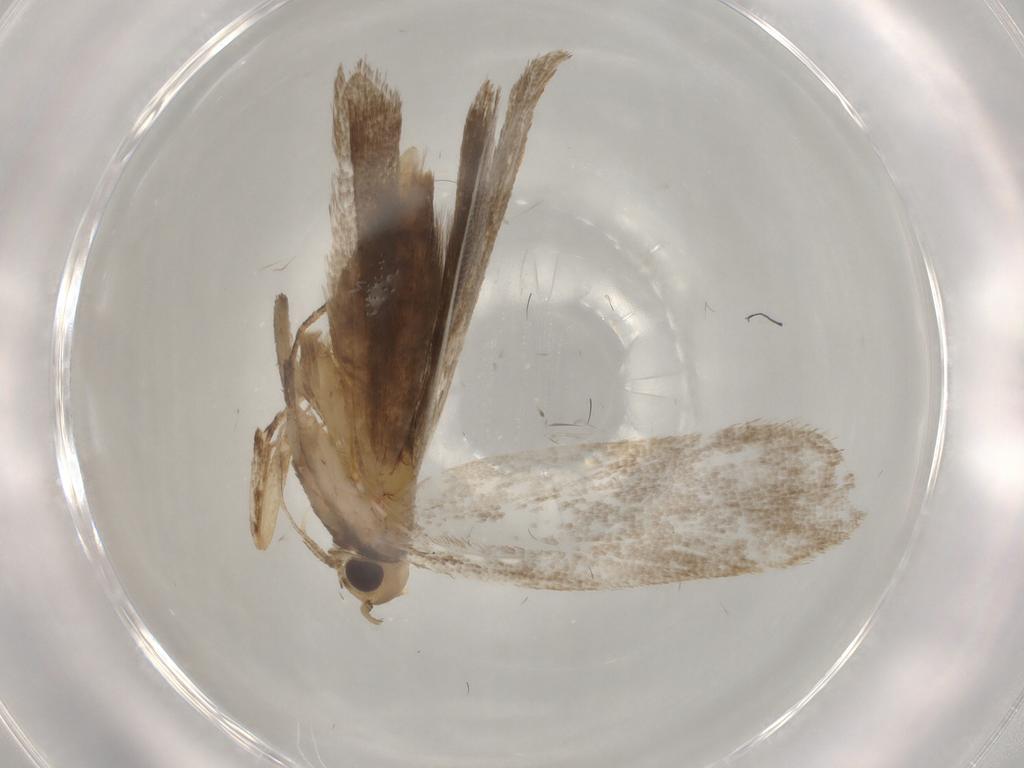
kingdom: Animalia
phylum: Arthropoda
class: Insecta
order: Lepidoptera
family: Gelechiidae
